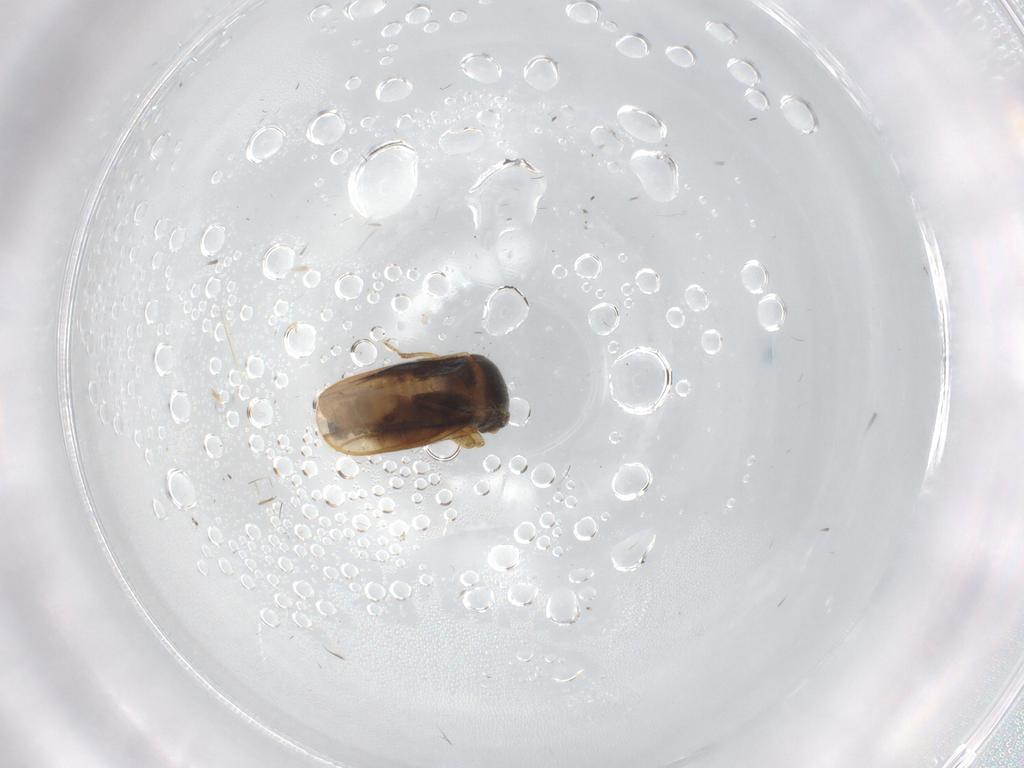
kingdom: Animalia
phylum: Arthropoda
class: Insecta
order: Hemiptera
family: Schizopteridae
